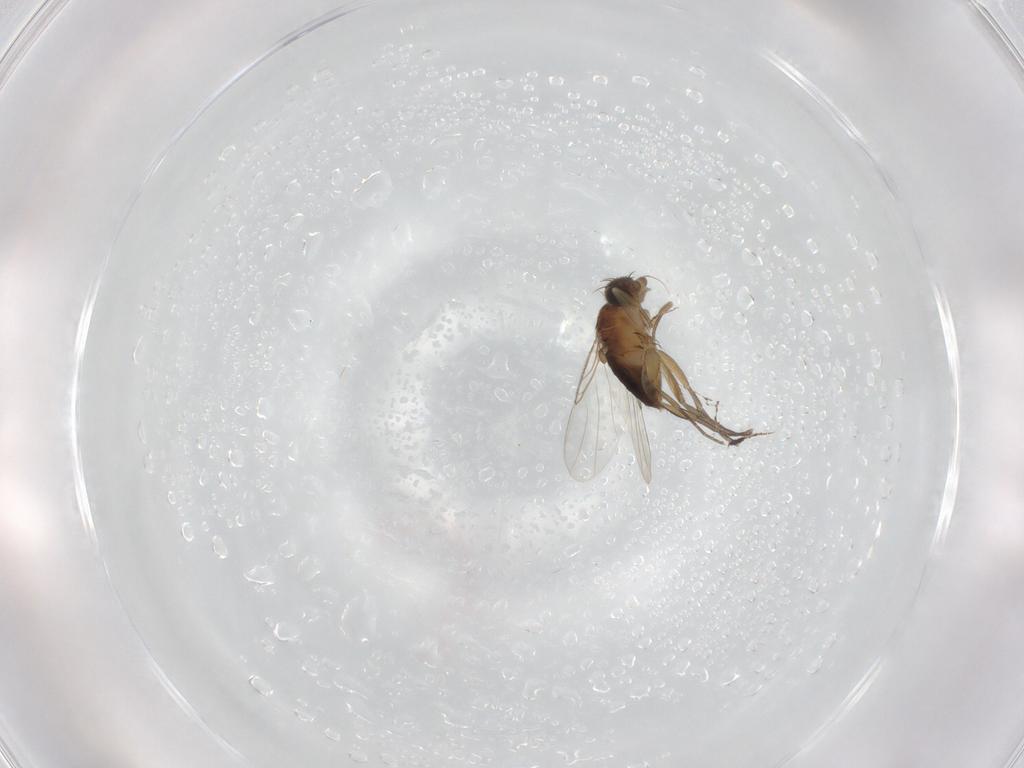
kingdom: Animalia
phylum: Arthropoda
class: Insecta
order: Diptera
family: Phoridae
